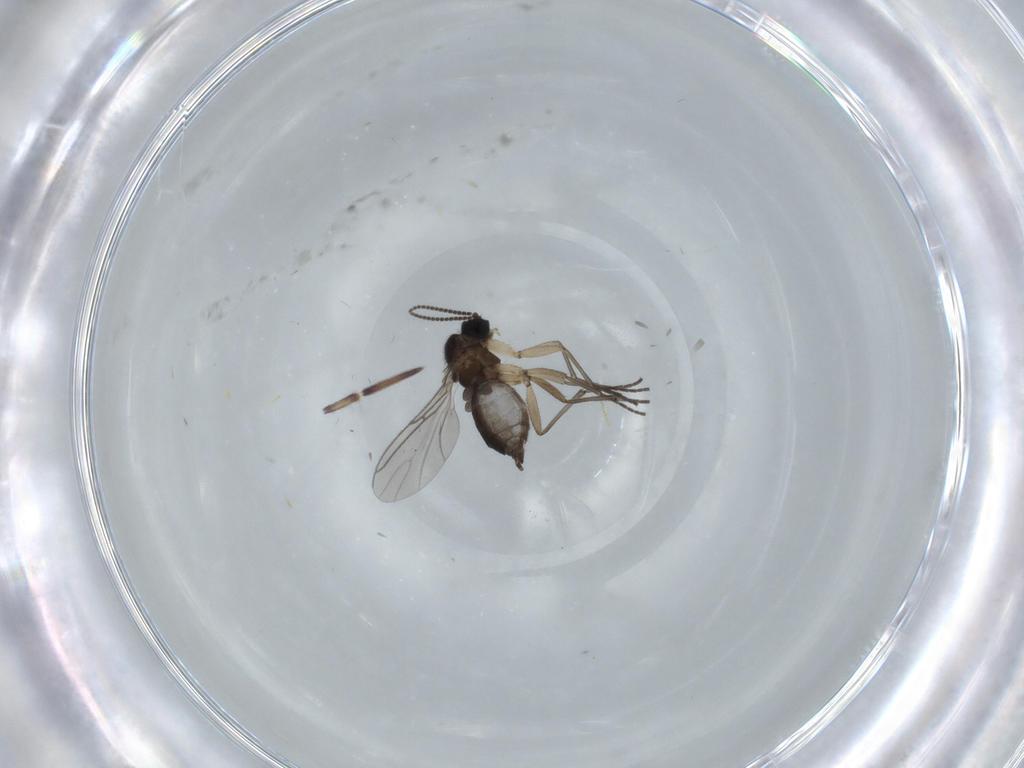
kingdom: Animalia
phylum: Arthropoda
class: Insecta
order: Diptera
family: Sciaridae
